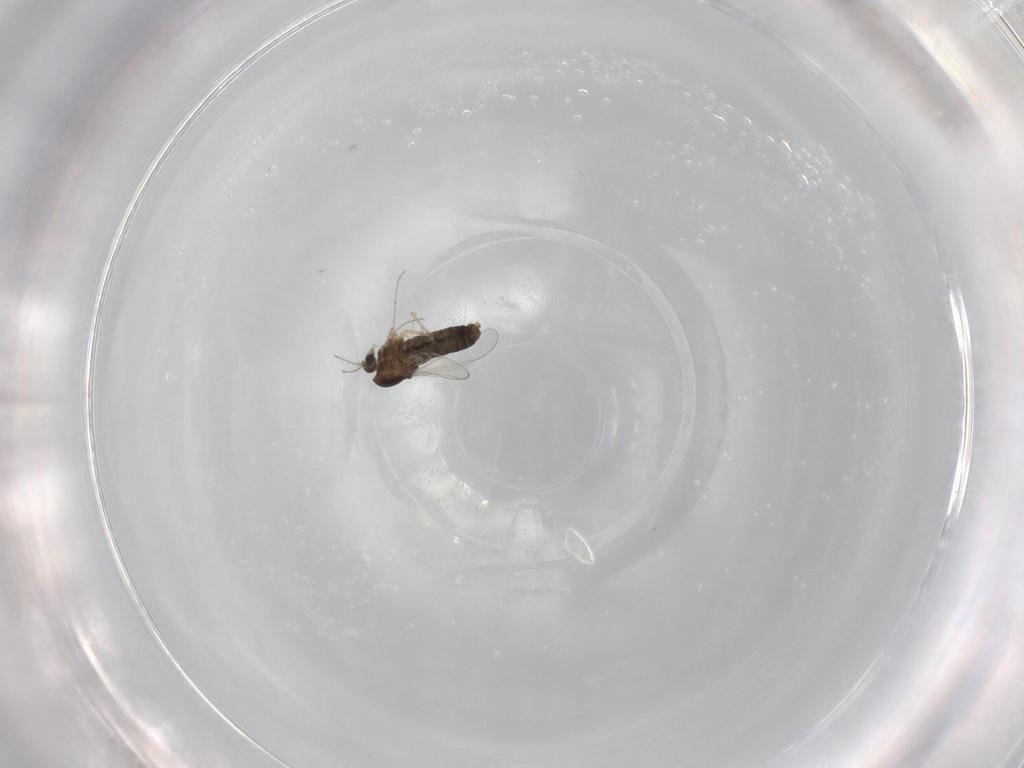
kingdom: Animalia
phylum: Arthropoda
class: Insecta
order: Diptera
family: Chironomidae
